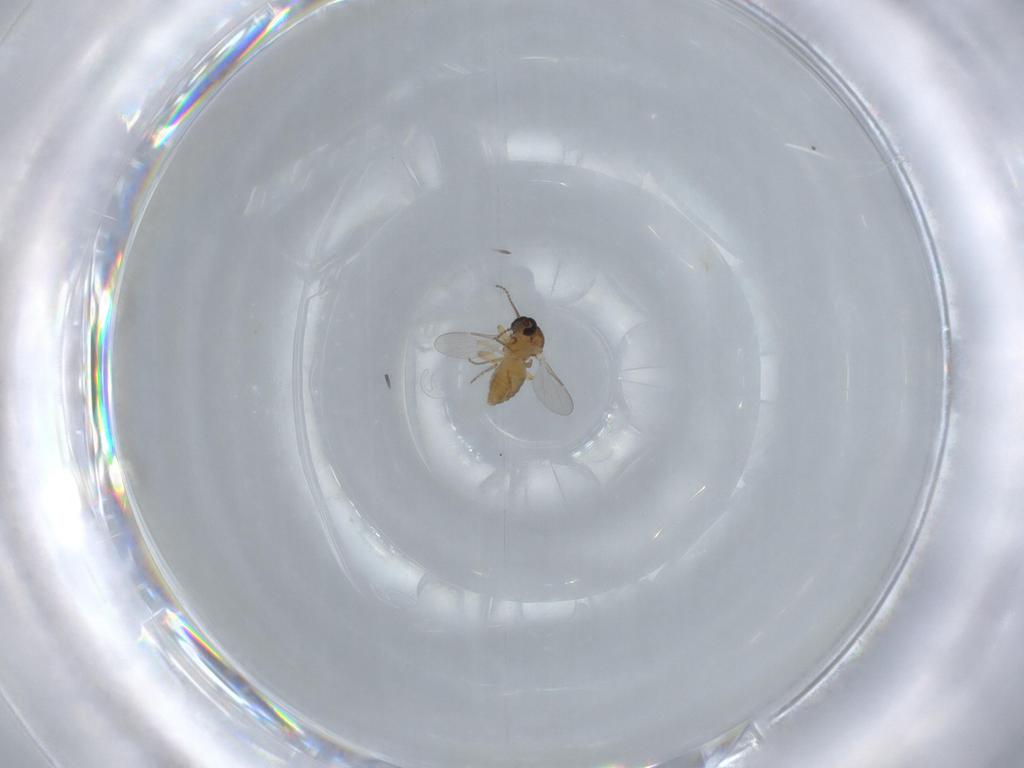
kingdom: Animalia
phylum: Arthropoda
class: Insecta
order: Diptera
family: Ceratopogonidae
